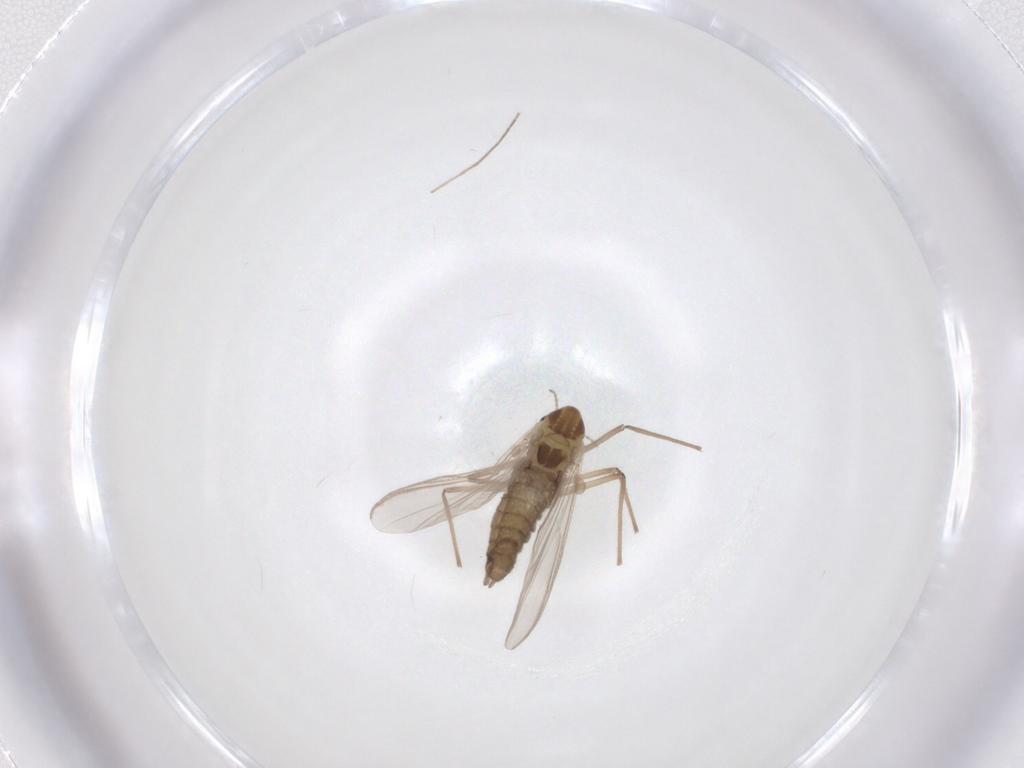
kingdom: Animalia
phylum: Arthropoda
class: Insecta
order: Diptera
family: Chironomidae
